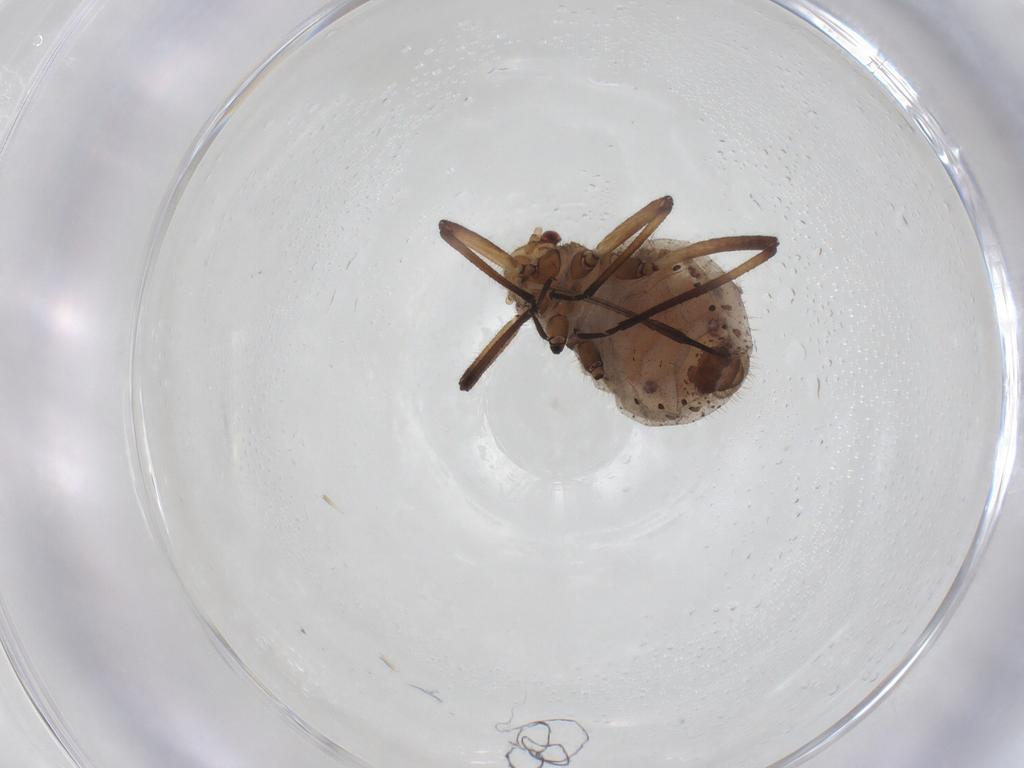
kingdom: Animalia
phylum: Arthropoda
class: Insecta
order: Hemiptera
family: Aphididae
